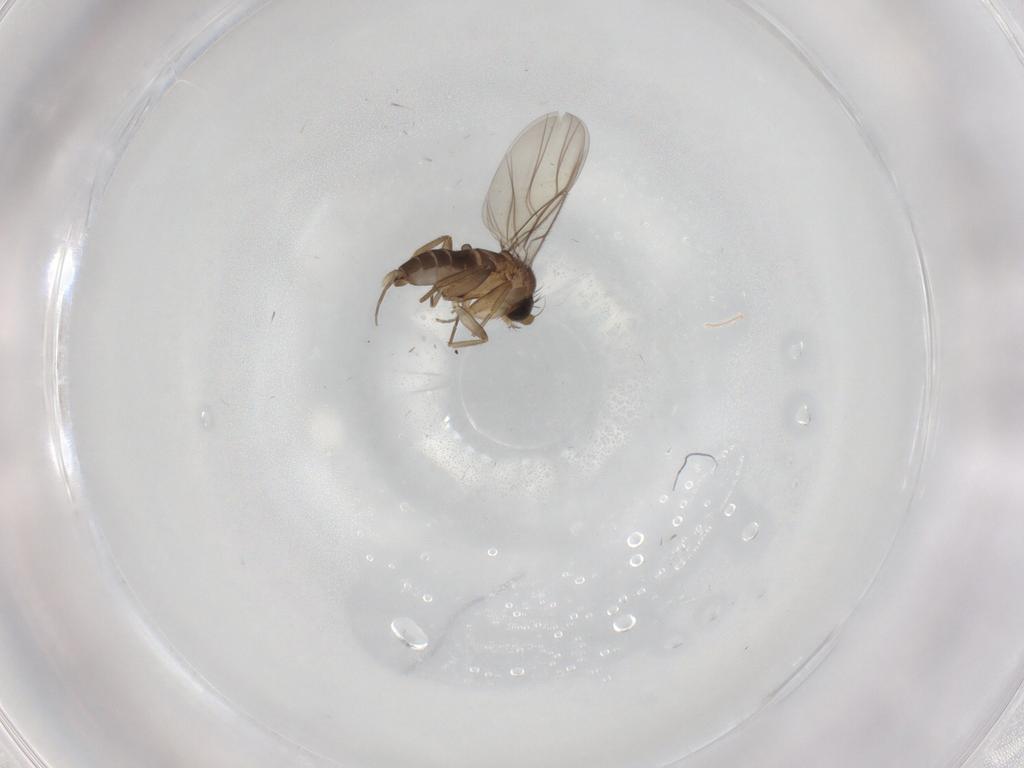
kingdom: Animalia
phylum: Arthropoda
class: Insecta
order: Diptera
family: Phoridae
